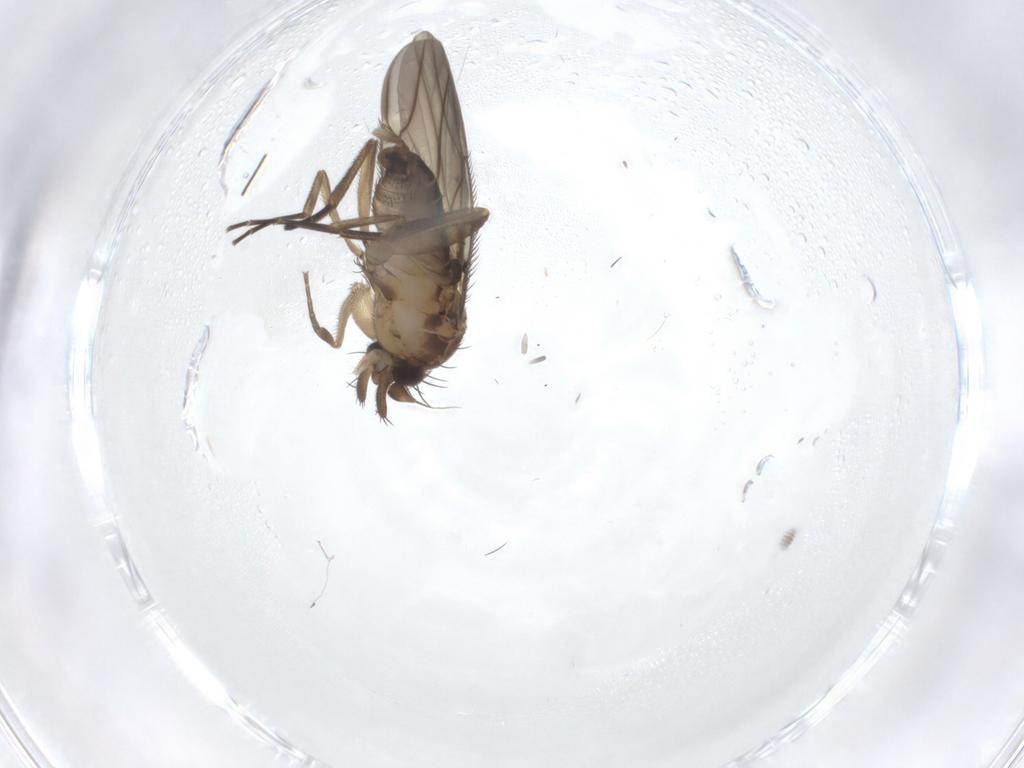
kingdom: Animalia
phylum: Arthropoda
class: Insecta
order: Diptera
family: Phoridae
